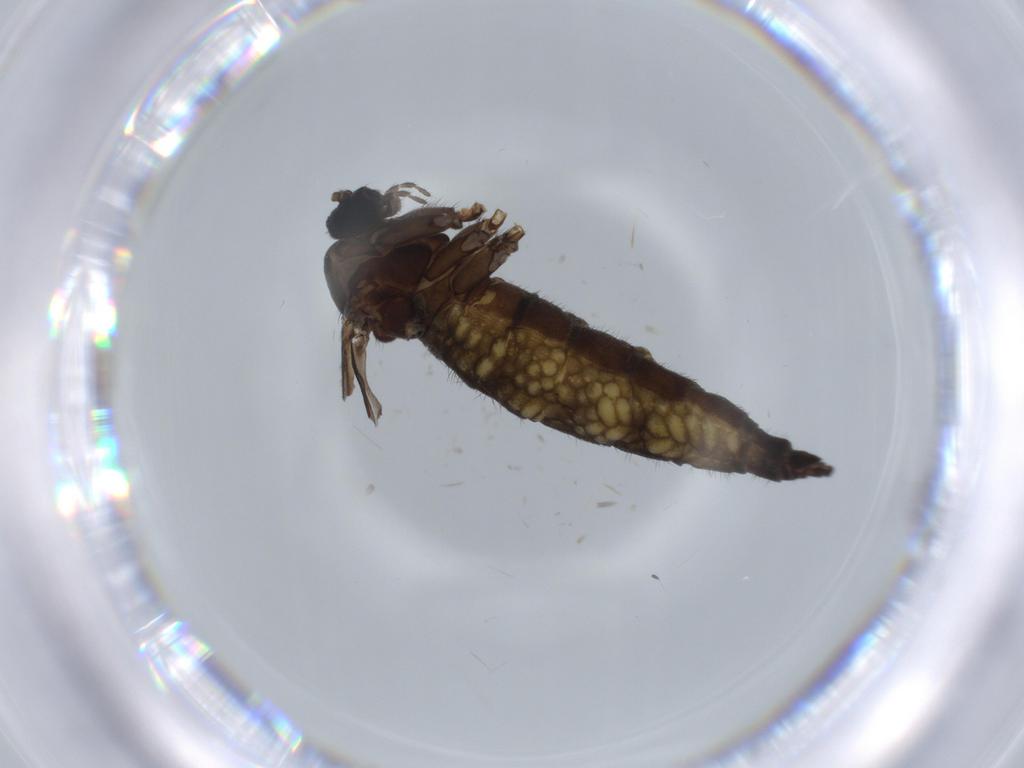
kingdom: Animalia
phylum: Arthropoda
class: Insecta
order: Diptera
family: Sciaridae
